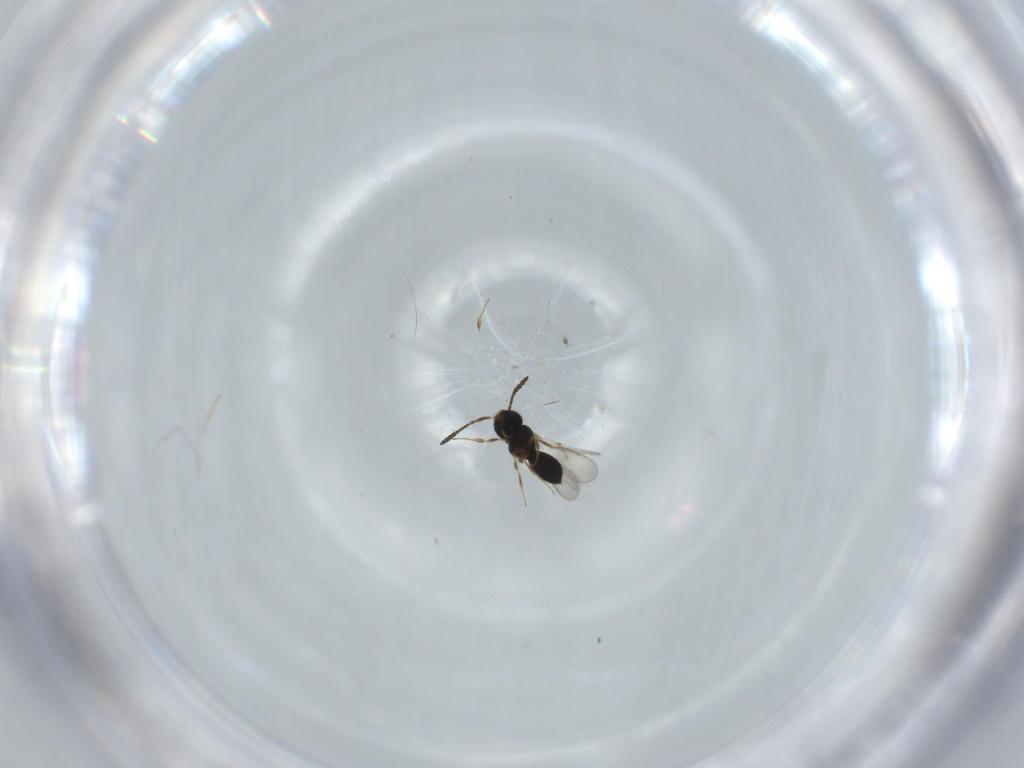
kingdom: Animalia
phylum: Arthropoda
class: Insecta
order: Hymenoptera
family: Scelionidae
